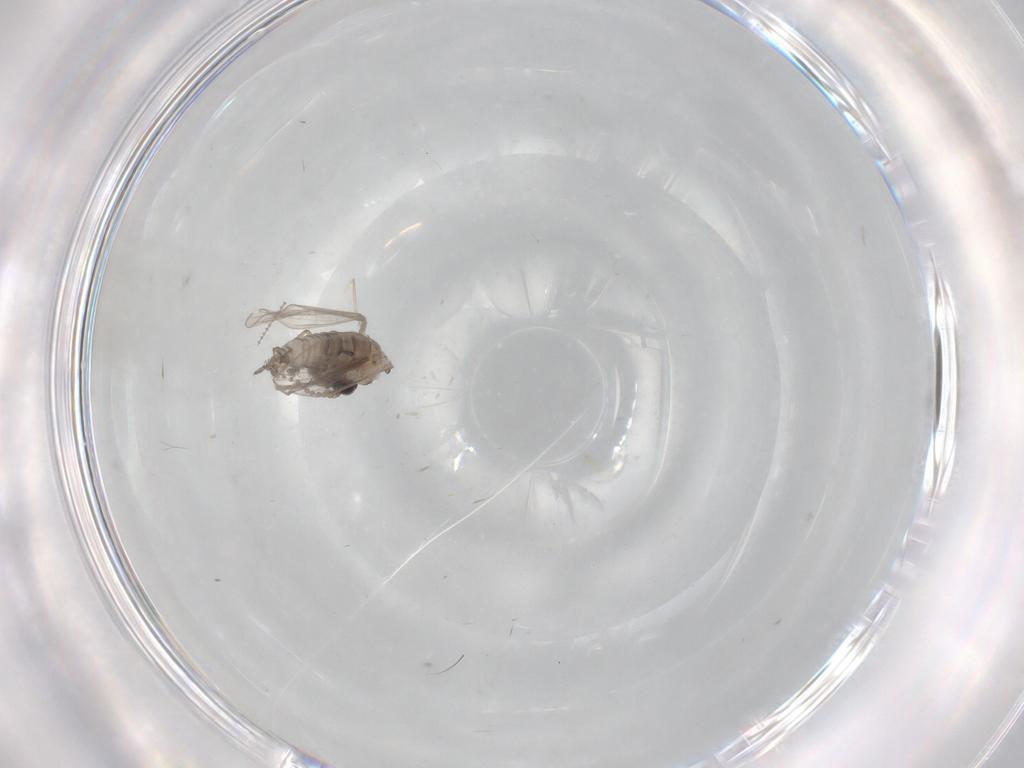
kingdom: Animalia
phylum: Arthropoda
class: Insecta
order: Diptera
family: Psychodidae
